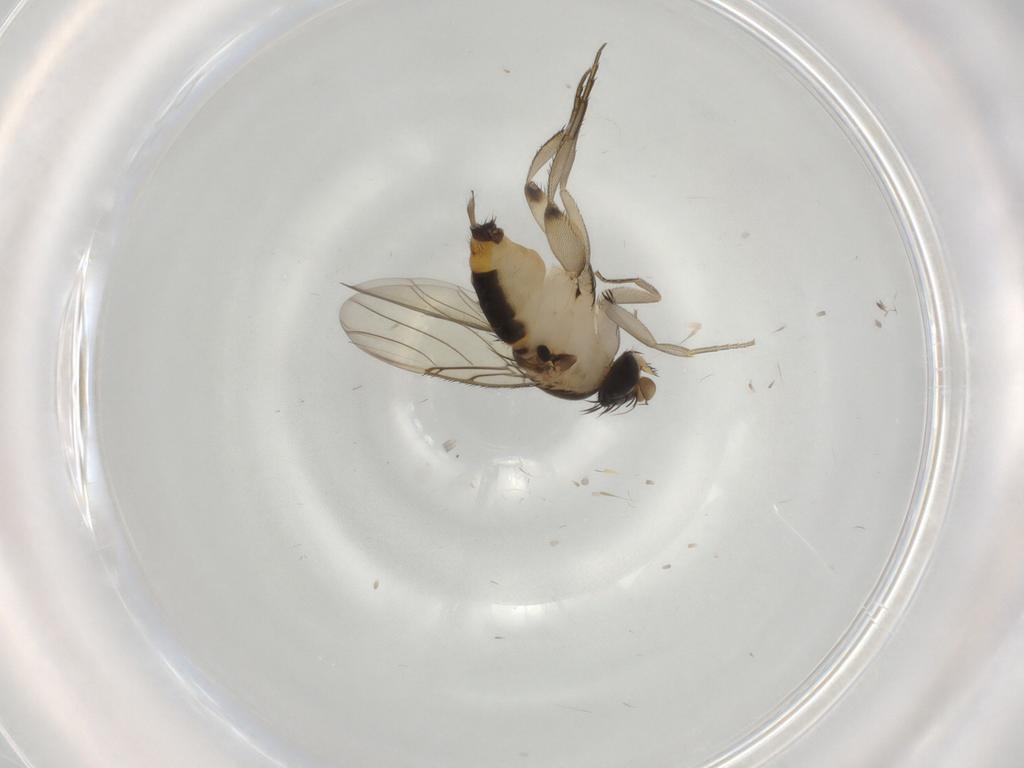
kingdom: Animalia
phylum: Arthropoda
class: Insecta
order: Diptera
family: Phoridae
